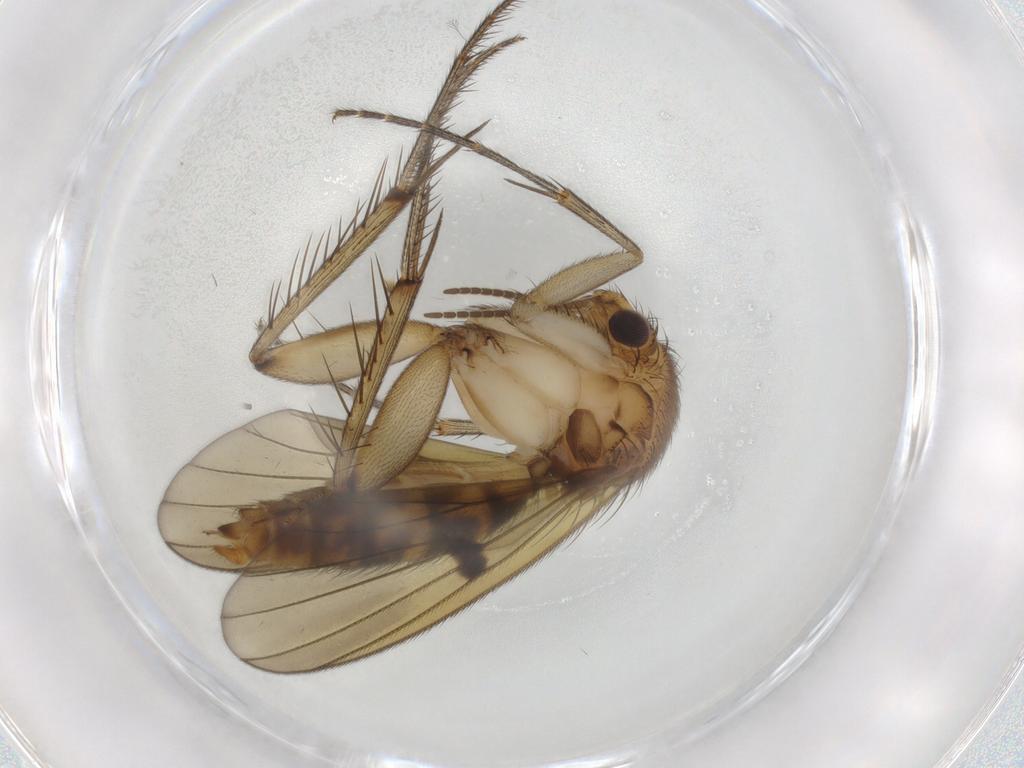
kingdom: Animalia
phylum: Arthropoda
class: Insecta
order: Diptera
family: Mycetophilidae
